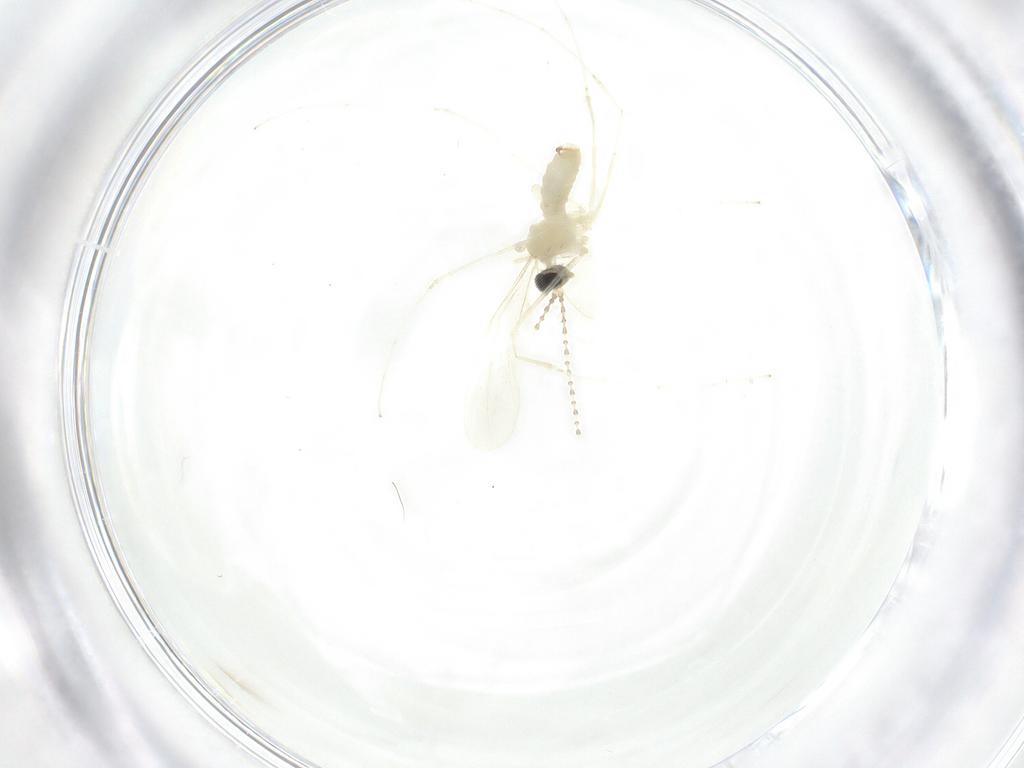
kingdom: Animalia
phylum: Arthropoda
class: Insecta
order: Diptera
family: Cecidomyiidae
